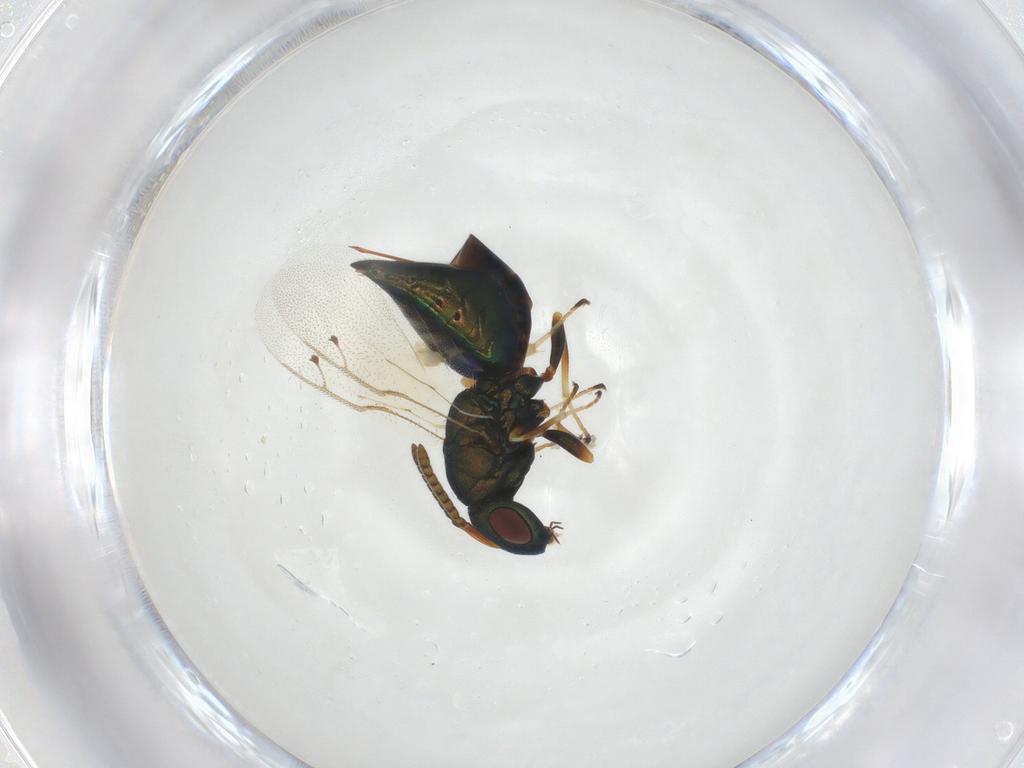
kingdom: Animalia
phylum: Arthropoda
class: Insecta
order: Hymenoptera
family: Pteromalidae
